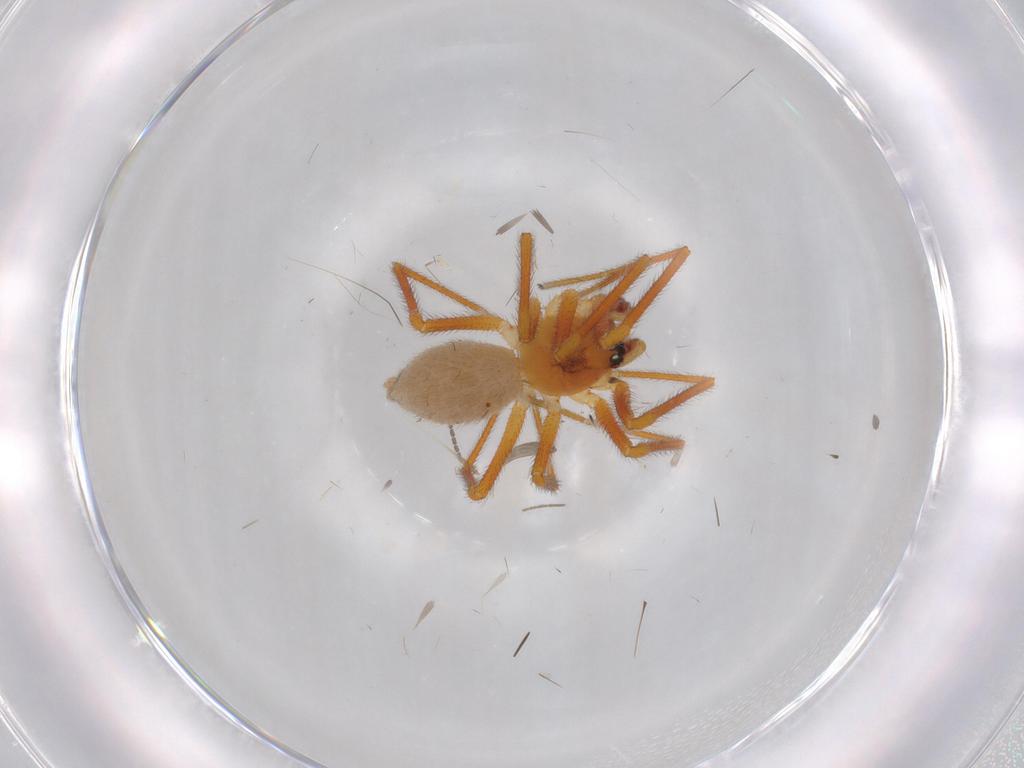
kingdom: Animalia
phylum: Arthropoda
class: Arachnida
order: Araneae
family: Linyphiidae
